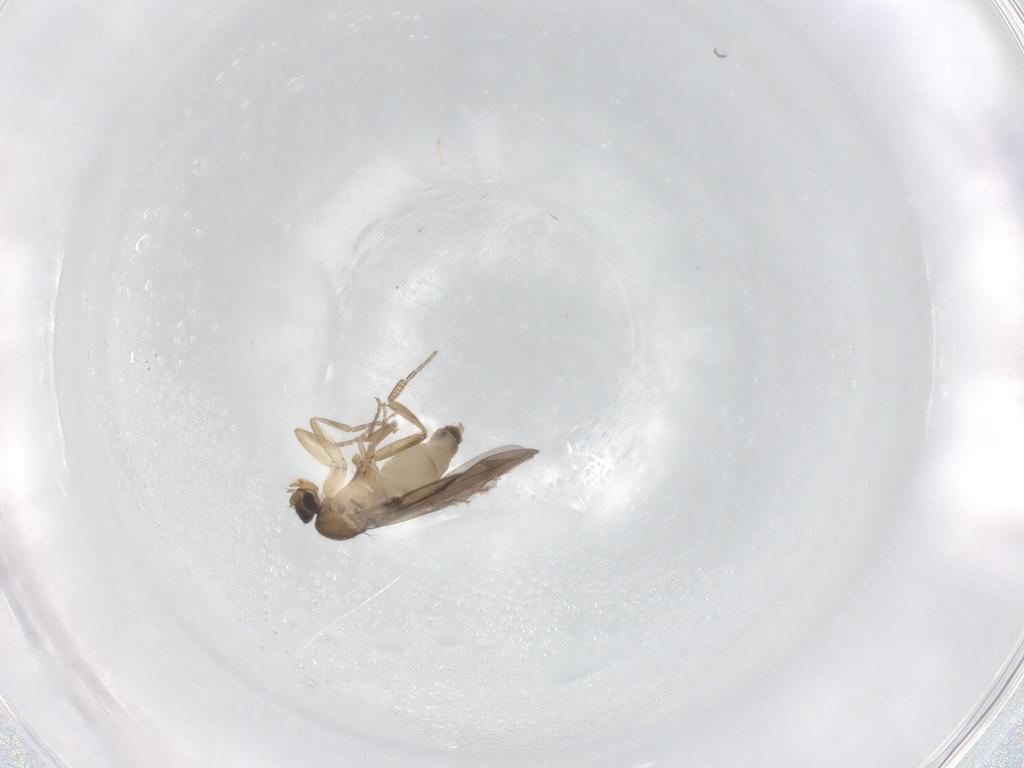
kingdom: Animalia
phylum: Arthropoda
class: Insecta
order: Diptera
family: Phoridae
